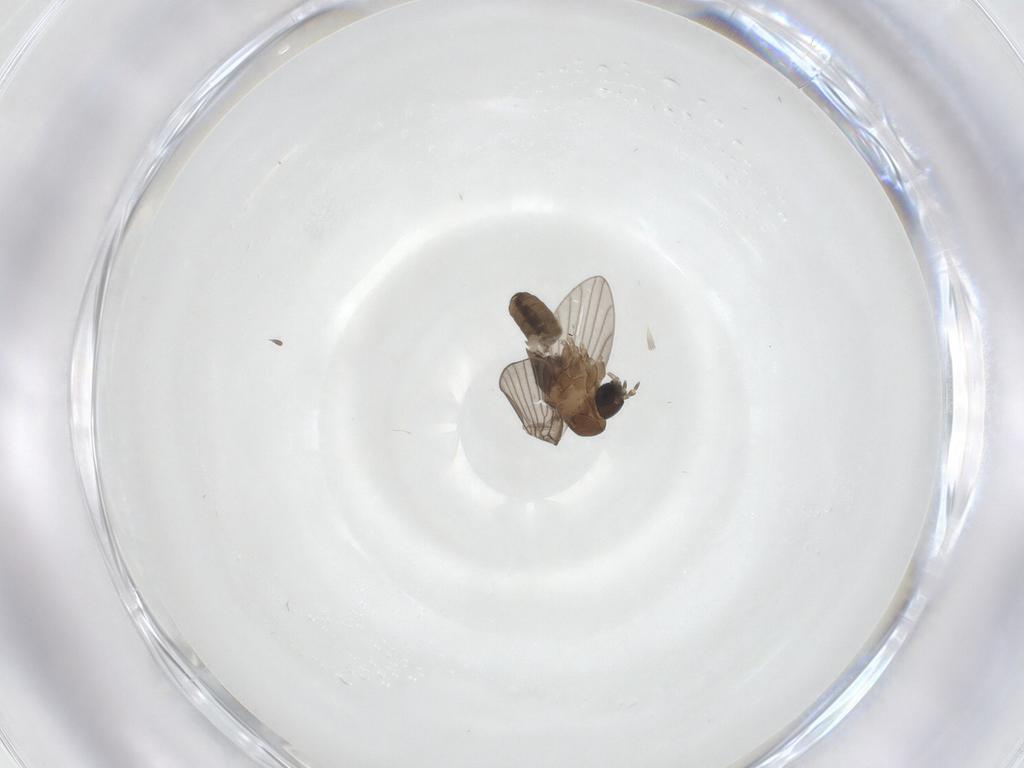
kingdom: Animalia
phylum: Arthropoda
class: Insecta
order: Diptera
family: Psychodidae
